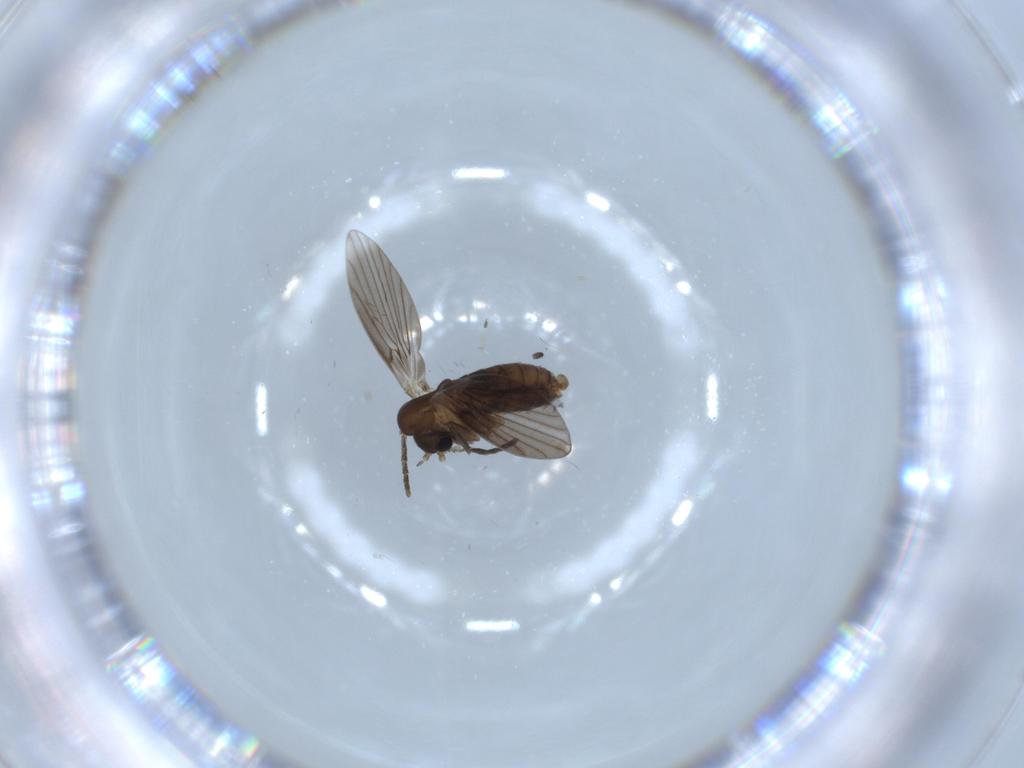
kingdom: Animalia
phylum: Arthropoda
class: Insecta
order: Diptera
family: Psychodidae
